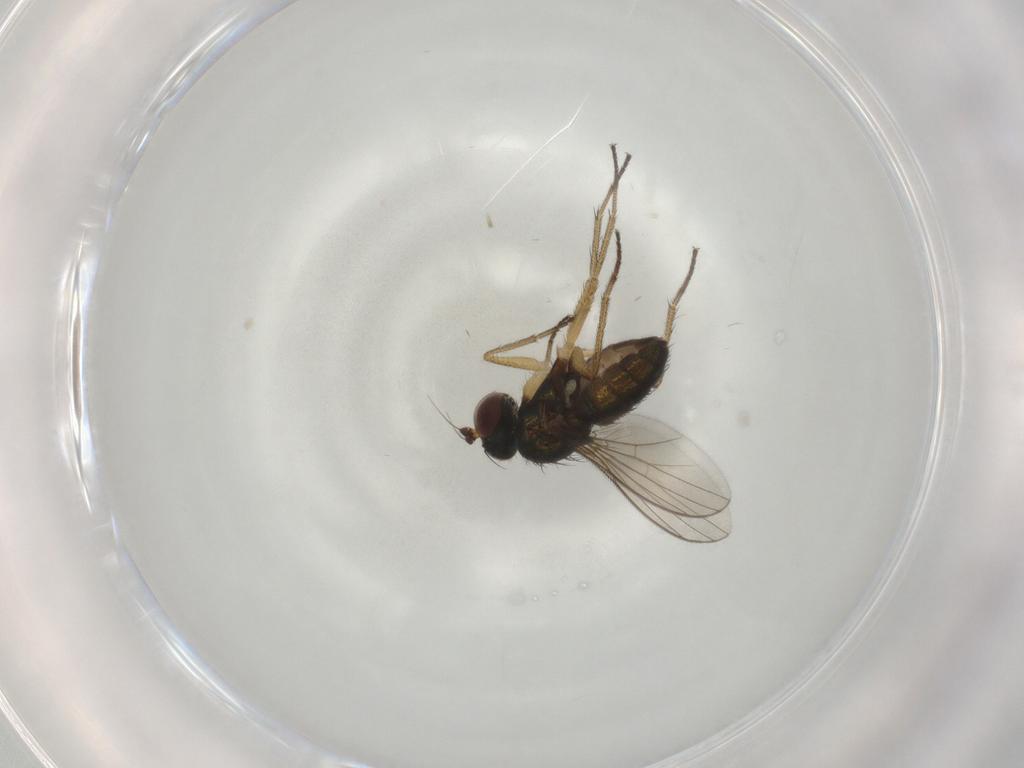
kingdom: Animalia
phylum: Arthropoda
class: Insecta
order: Diptera
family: Dolichopodidae
